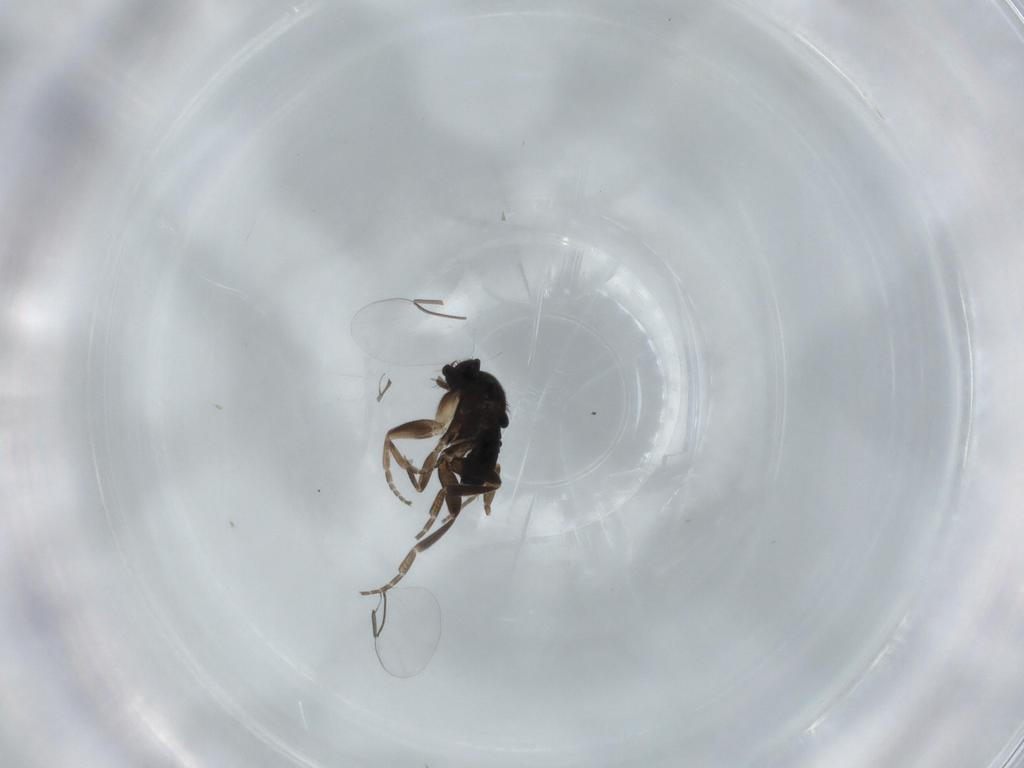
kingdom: Animalia
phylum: Arthropoda
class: Insecta
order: Diptera
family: Phoridae
